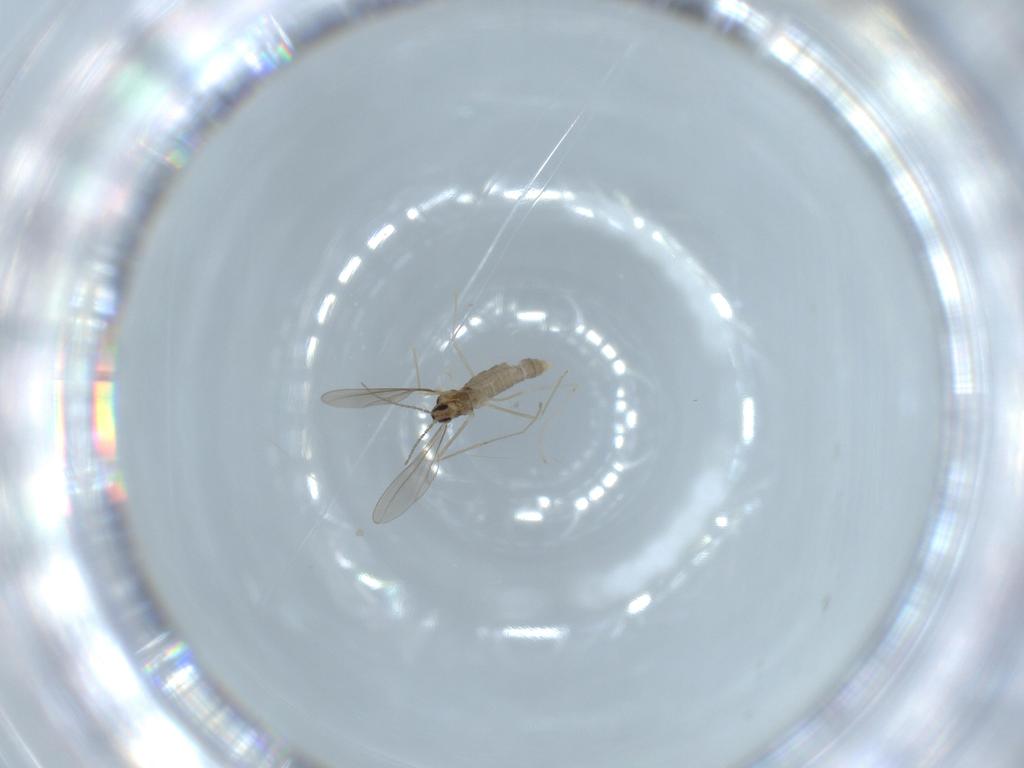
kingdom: Animalia
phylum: Arthropoda
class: Insecta
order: Diptera
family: Cecidomyiidae
